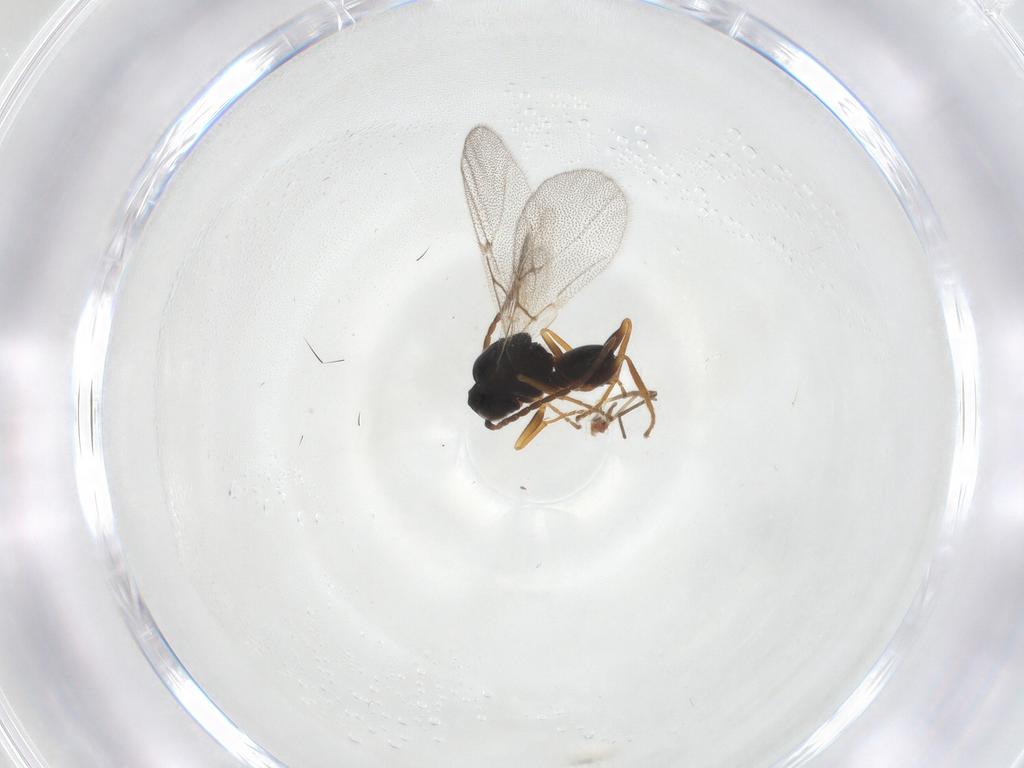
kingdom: Animalia
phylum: Arthropoda
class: Insecta
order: Hymenoptera
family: Cynipidae
